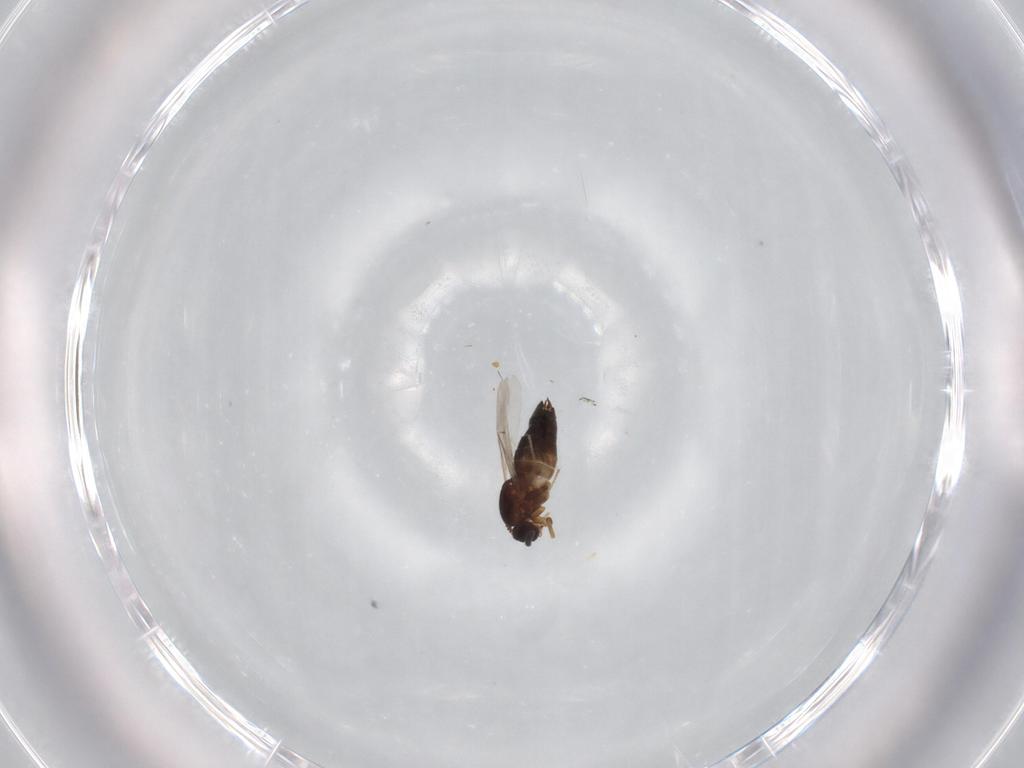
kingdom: Animalia
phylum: Arthropoda
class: Insecta
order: Diptera
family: Scatopsidae
